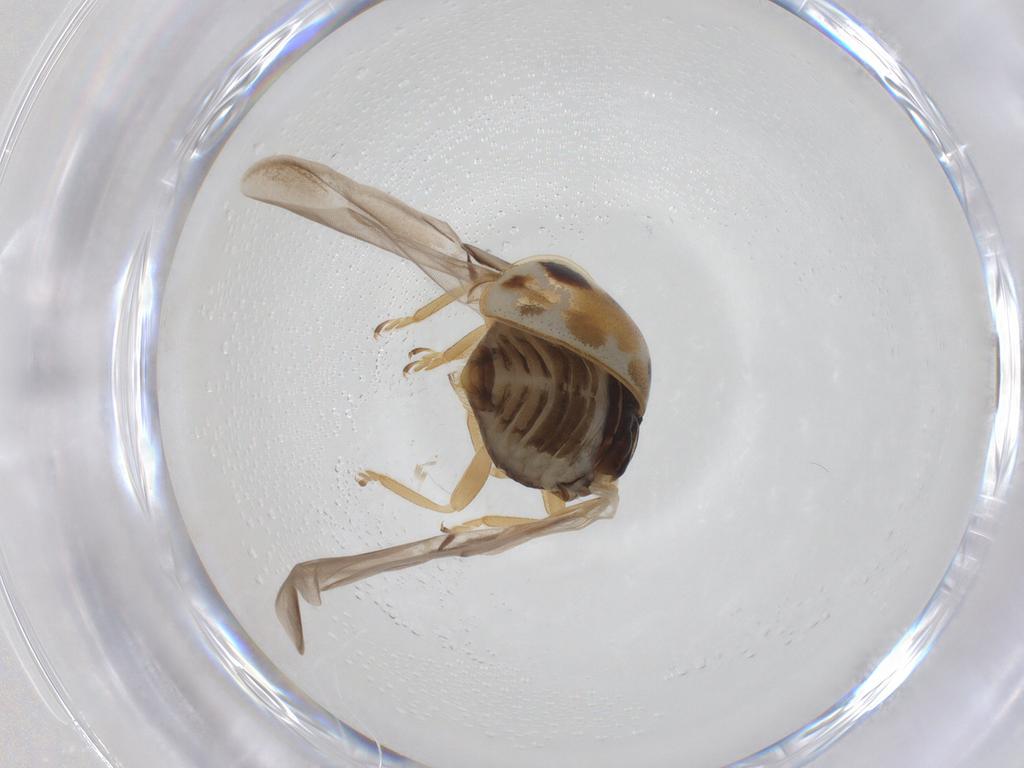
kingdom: Animalia
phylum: Arthropoda
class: Insecta
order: Coleoptera
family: Coccinellidae
